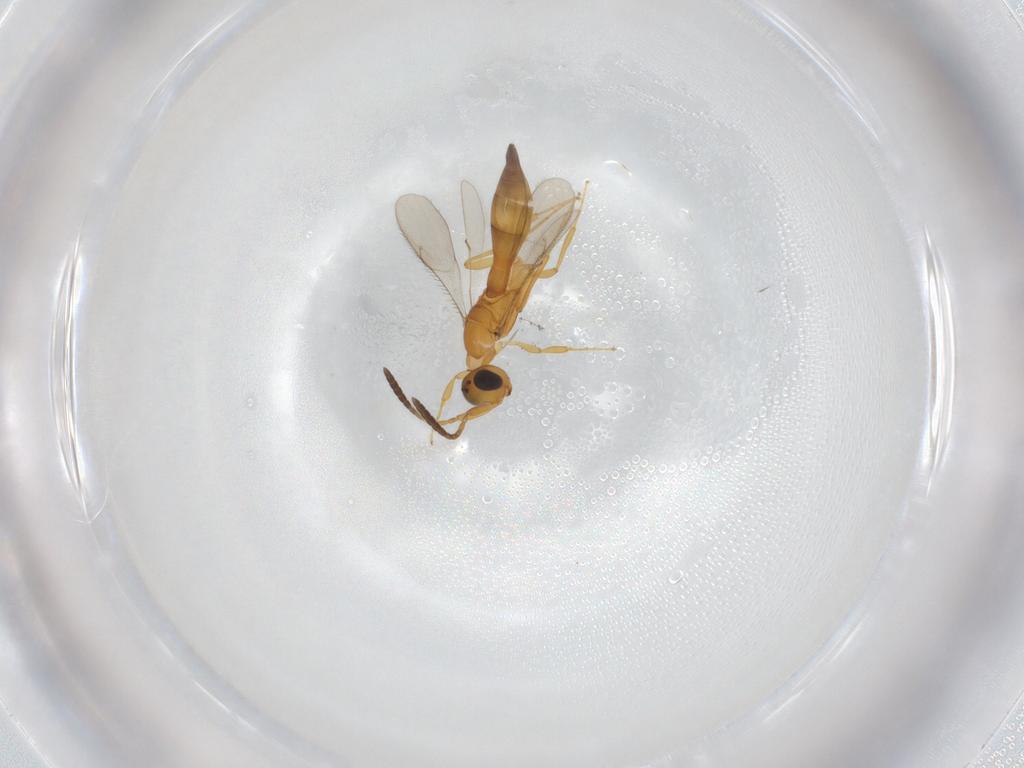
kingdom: Animalia
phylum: Arthropoda
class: Insecta
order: Hymenoptera
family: Scelionidae
